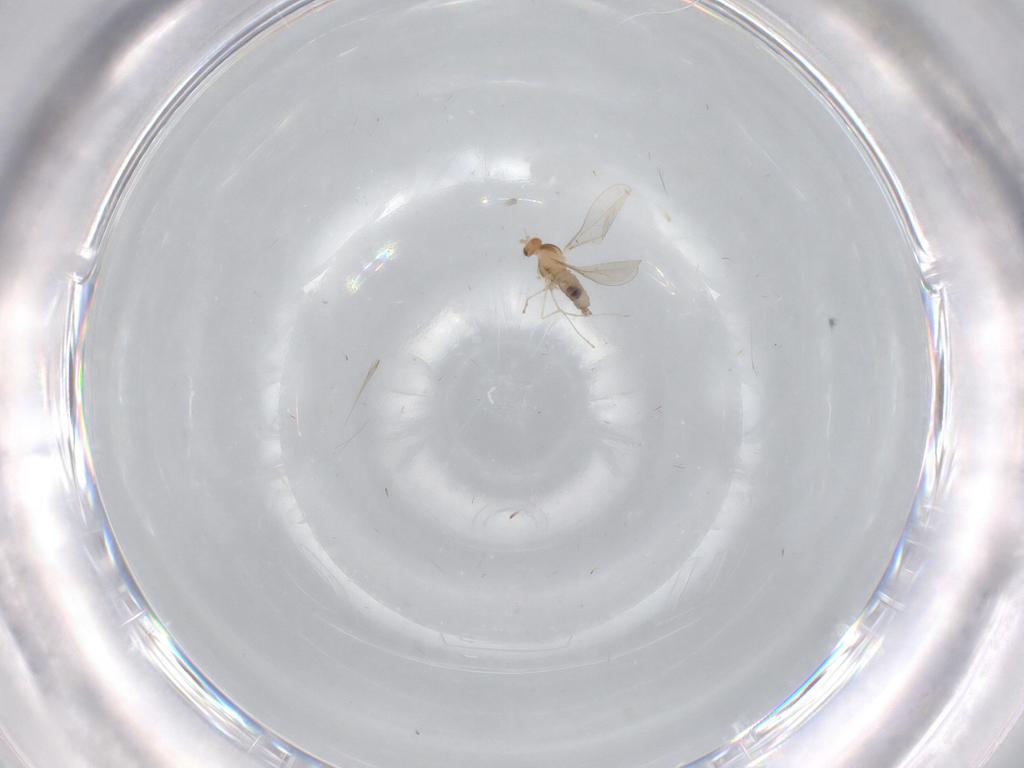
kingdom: Animalia
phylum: Arthropoda
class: Insecta
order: Diptera
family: Cecidomyiidae
